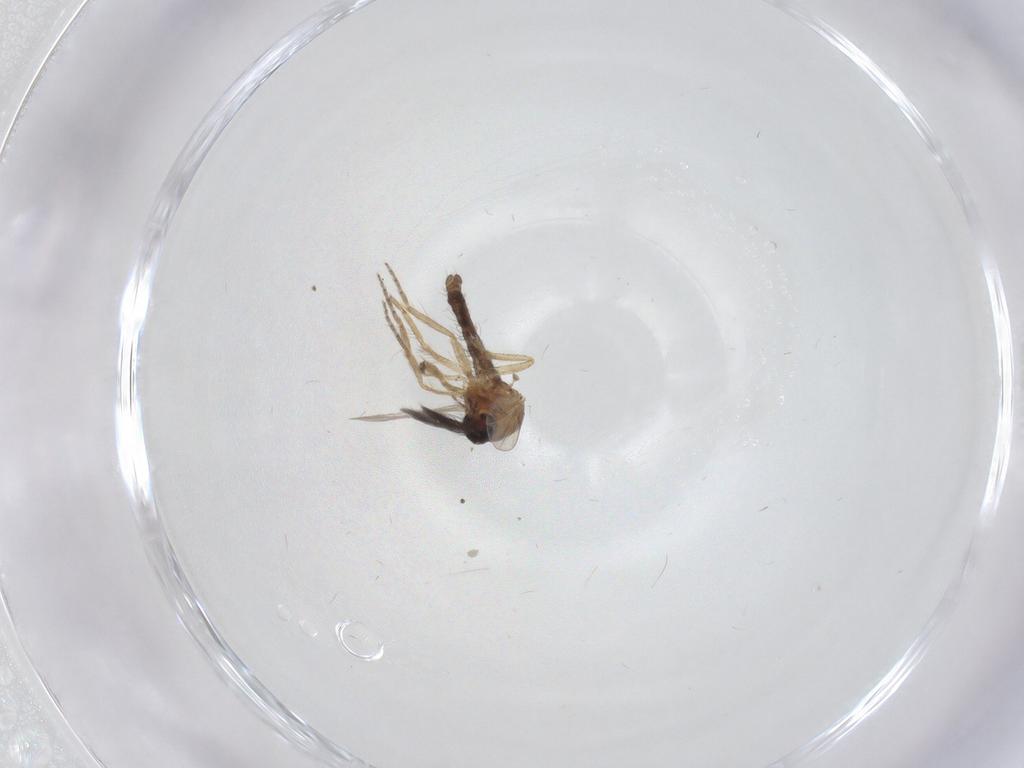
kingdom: Animalia
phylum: Arthropoda
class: Insecta
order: Diptera
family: Ceratopogonidae
